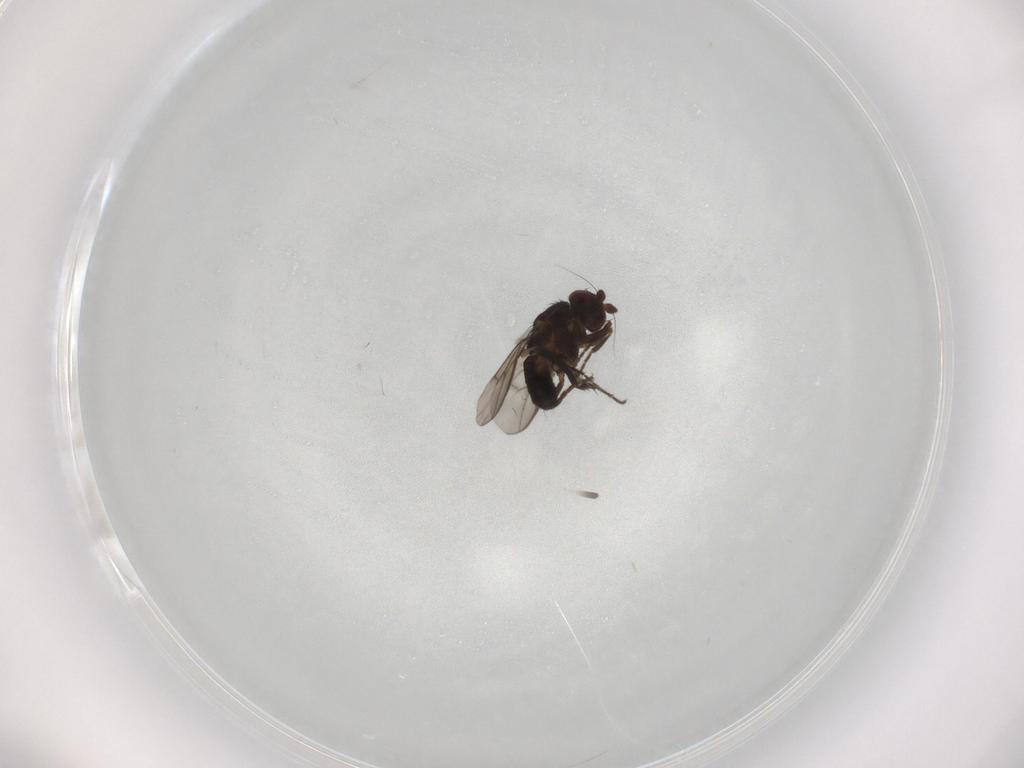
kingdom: Animalia
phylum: Arthropoda
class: Insecta
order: Diptera
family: Sphaeroceridae
